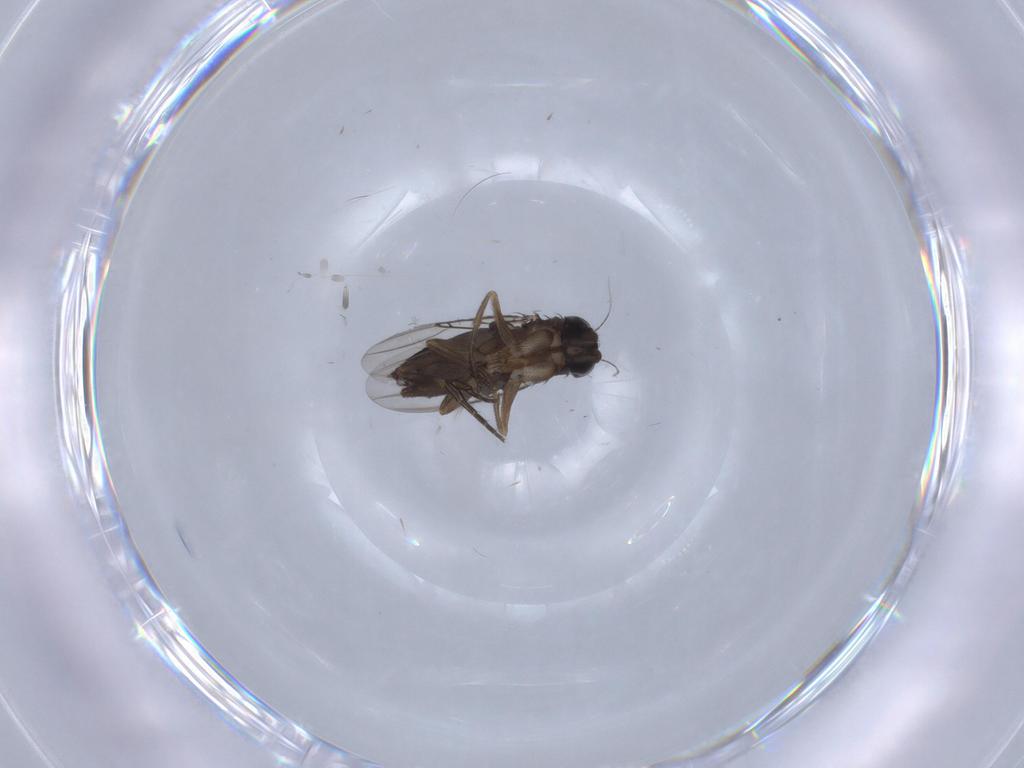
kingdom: Animalia
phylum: Arthropoda
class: Insecta
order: Diptera
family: Phoridae
